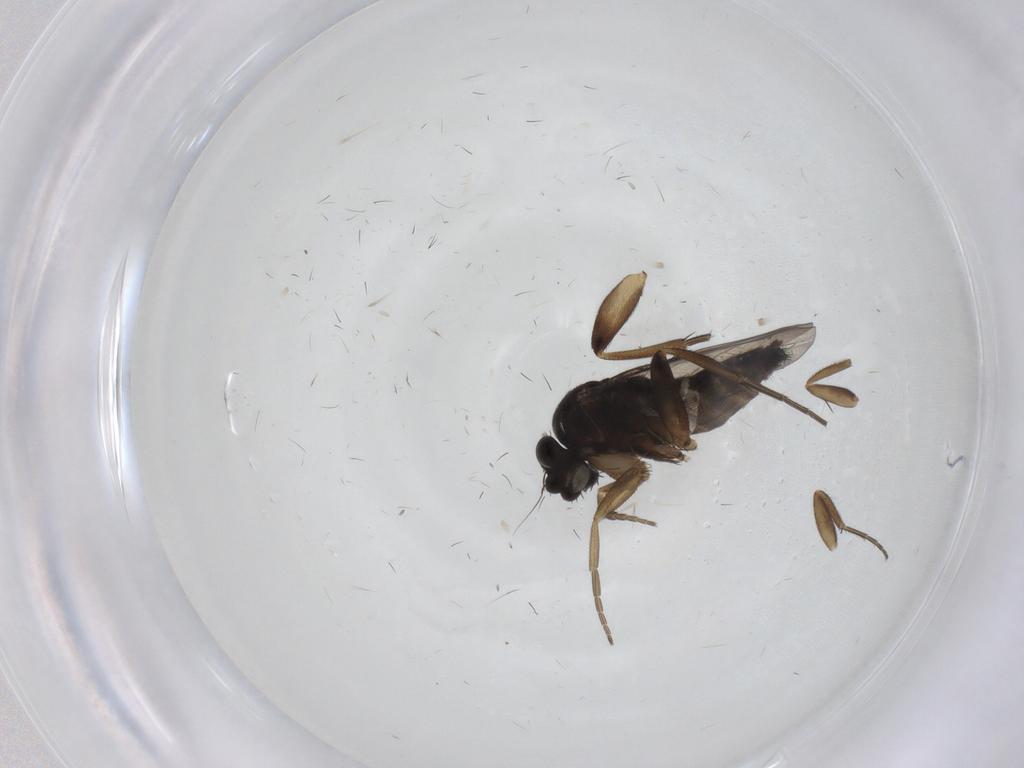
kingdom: Animalia
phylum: Arthropoda
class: Insecta
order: Diptera
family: Phoridae
